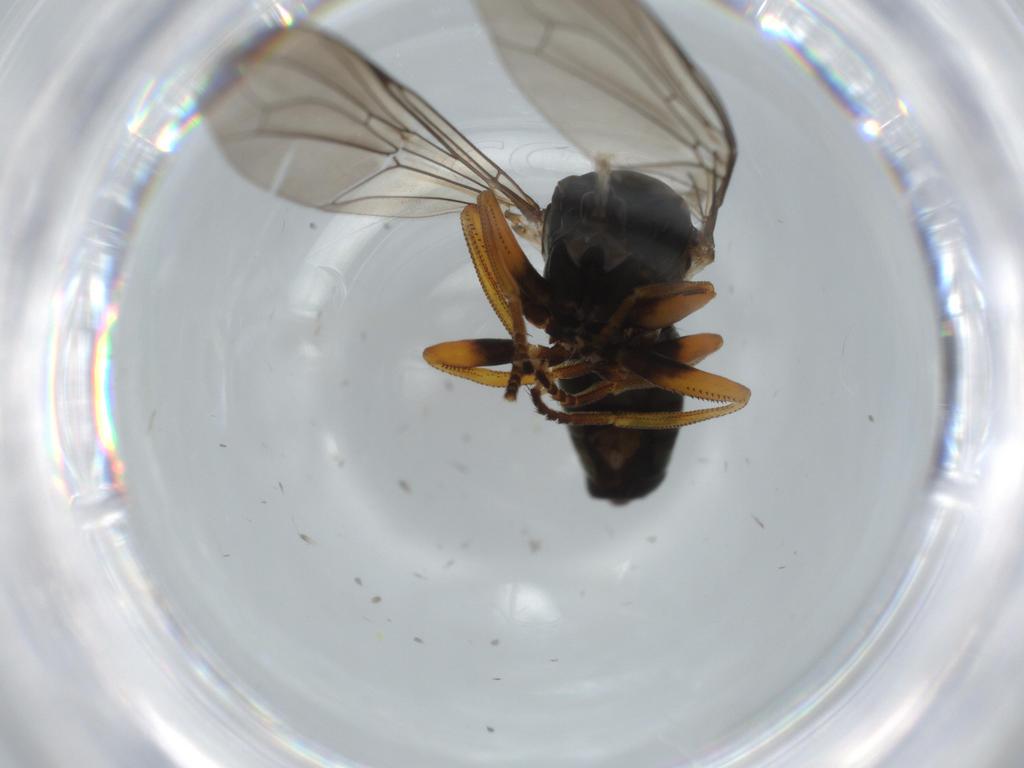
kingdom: Animalia
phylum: Arthropoda
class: Insecta
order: Diptera
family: Pipunculidae
